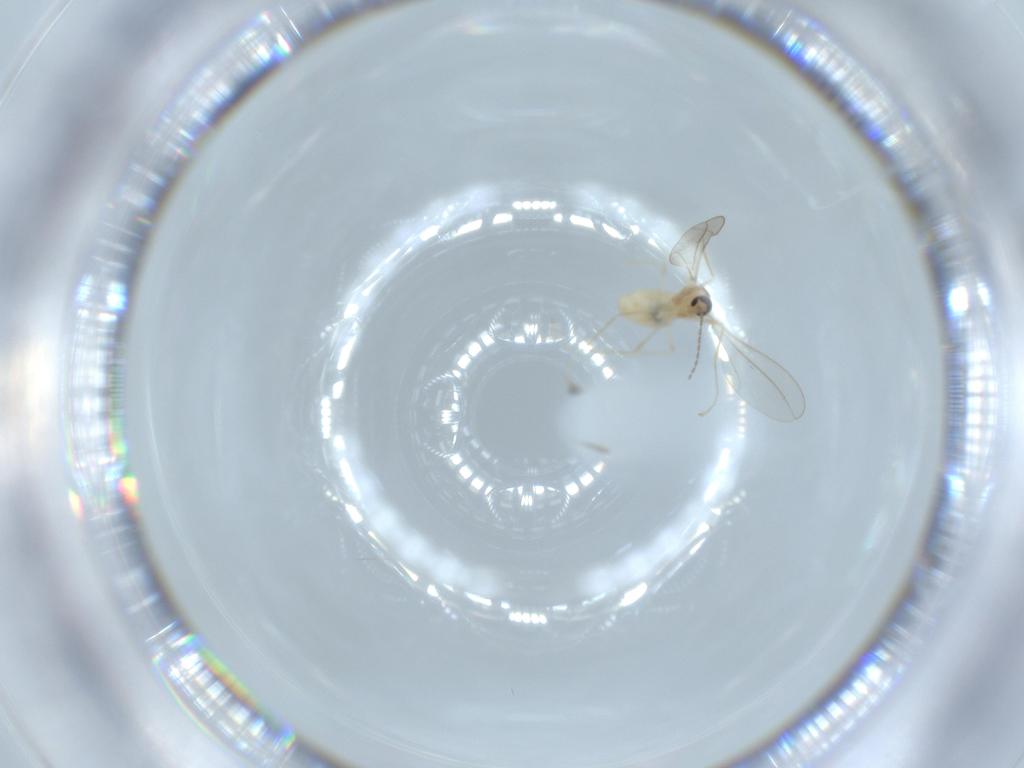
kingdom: Animalia
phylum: Arthropoda
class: Insecta
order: Diptera
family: Cecidomyiidae
